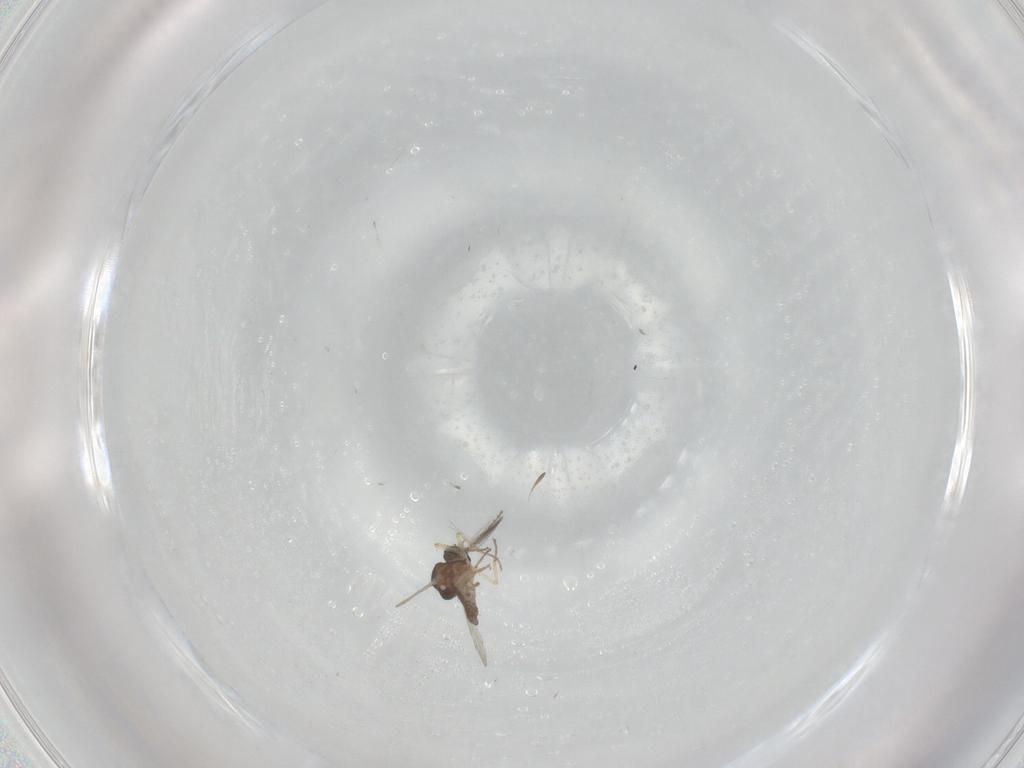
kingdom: Animalia
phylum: Arthropoda
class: Insecta
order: Diptera
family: Ceratopogonidae
